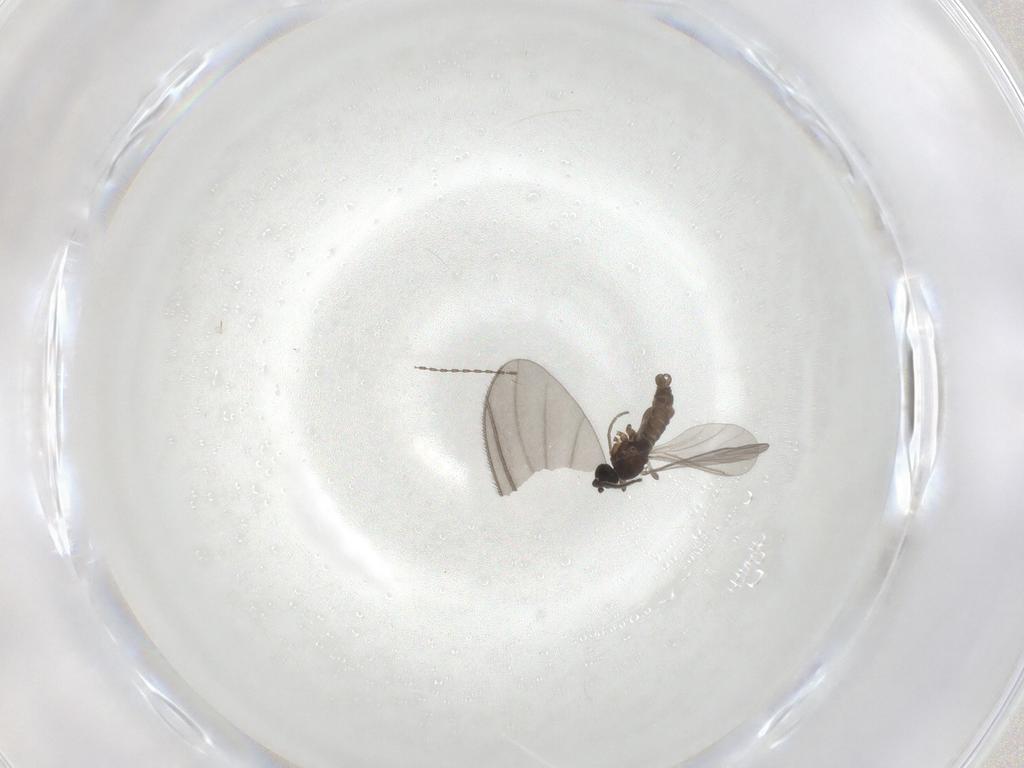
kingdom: Animalia
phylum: Arthropoda
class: Insecta
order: Diptera
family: Sciaridae
